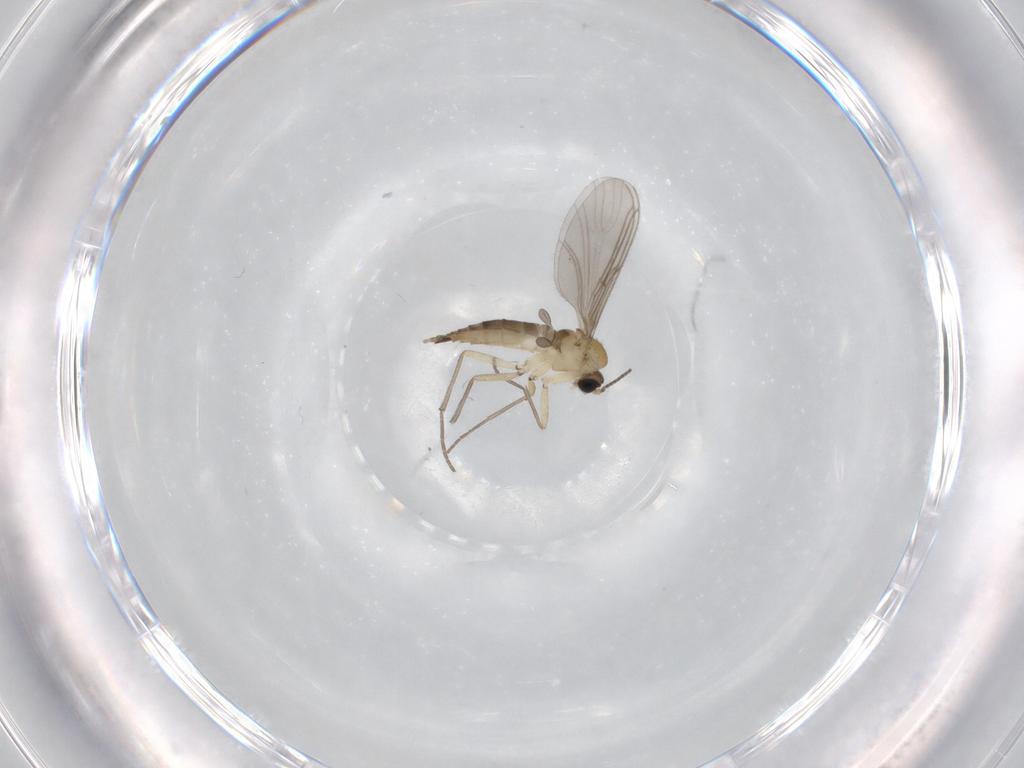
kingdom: Animalia
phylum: Arthropoda
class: Insecta
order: Diptera
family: Sciaridae
